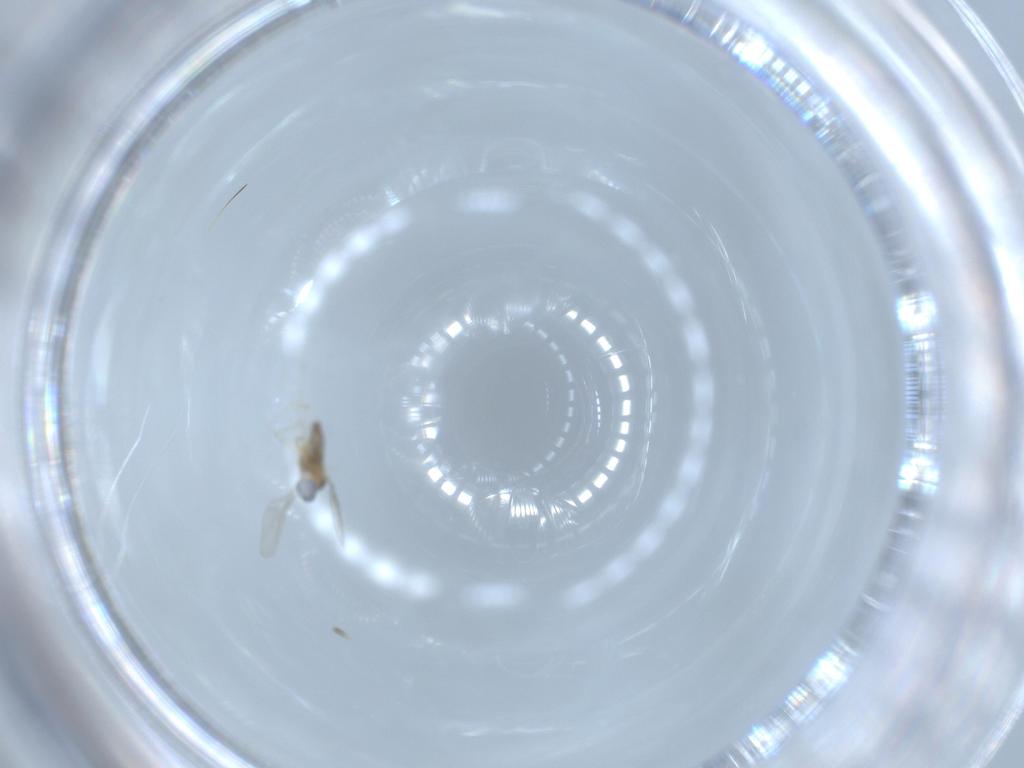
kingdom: Animalia
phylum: Arthropoda
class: Insecta
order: Diptera
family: Cecidomyiidae
